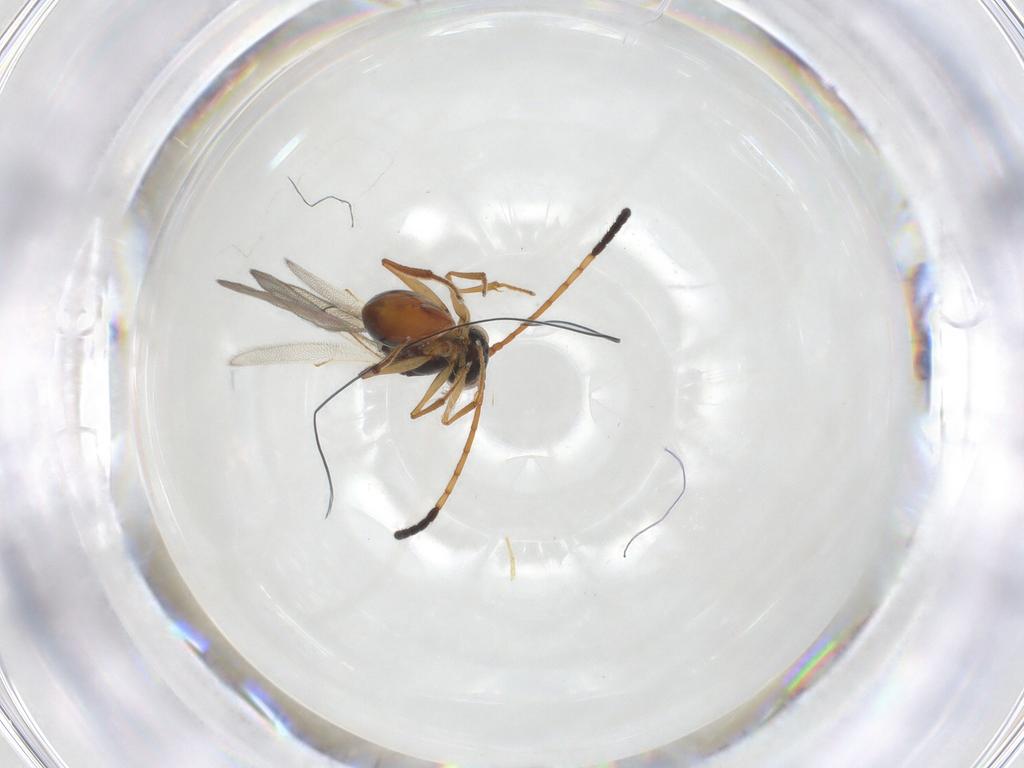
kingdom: Animalia
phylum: Arthropoda
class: Insecta
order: Hymenoptera
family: Figitidae
